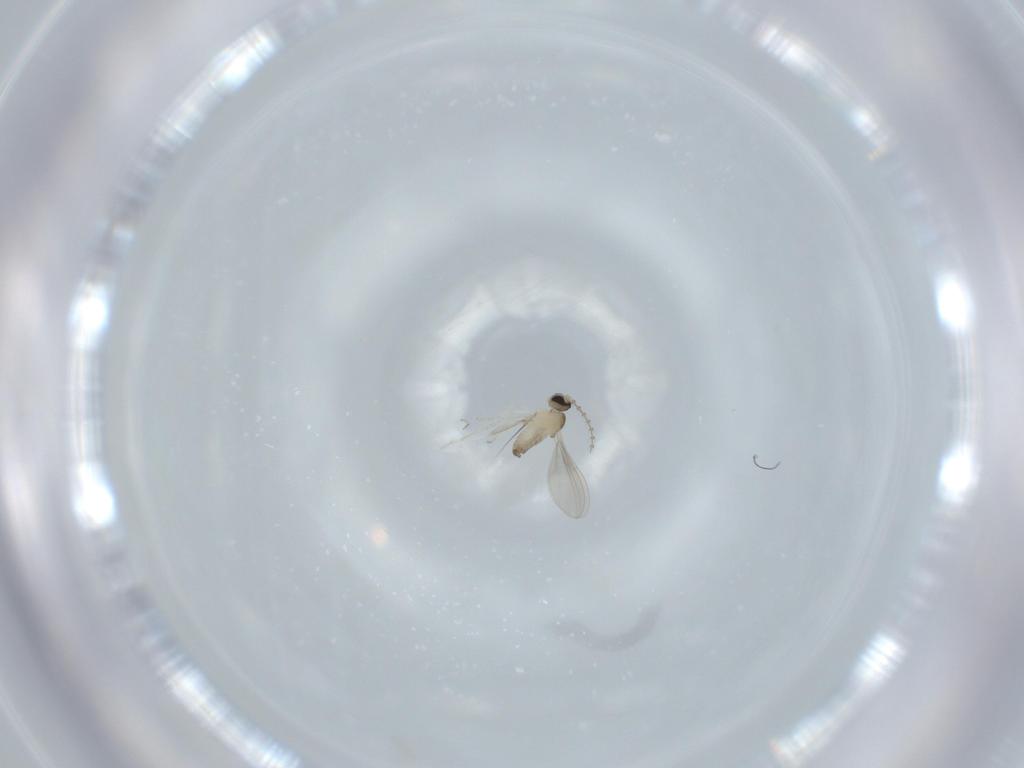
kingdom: Animalia
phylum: Arthropoda
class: Insecta
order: Diptera
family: Cecidomyiidae
